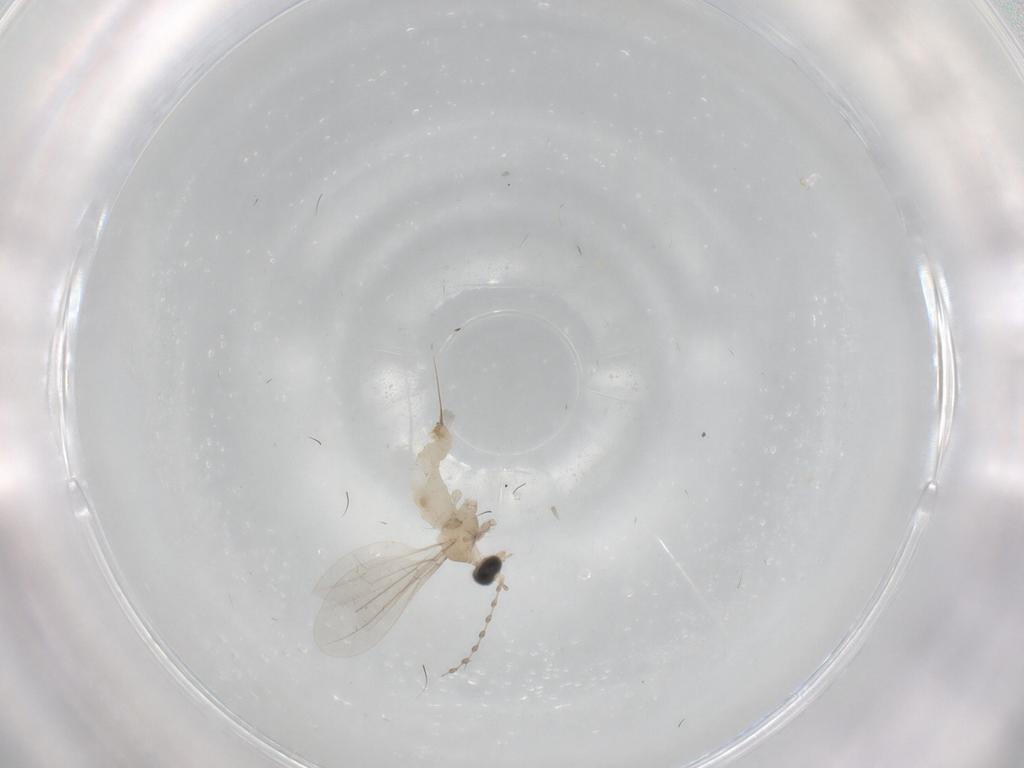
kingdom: Animalia
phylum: Arthropoda
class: Insecta
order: Diptera
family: Cecidomyiidae
